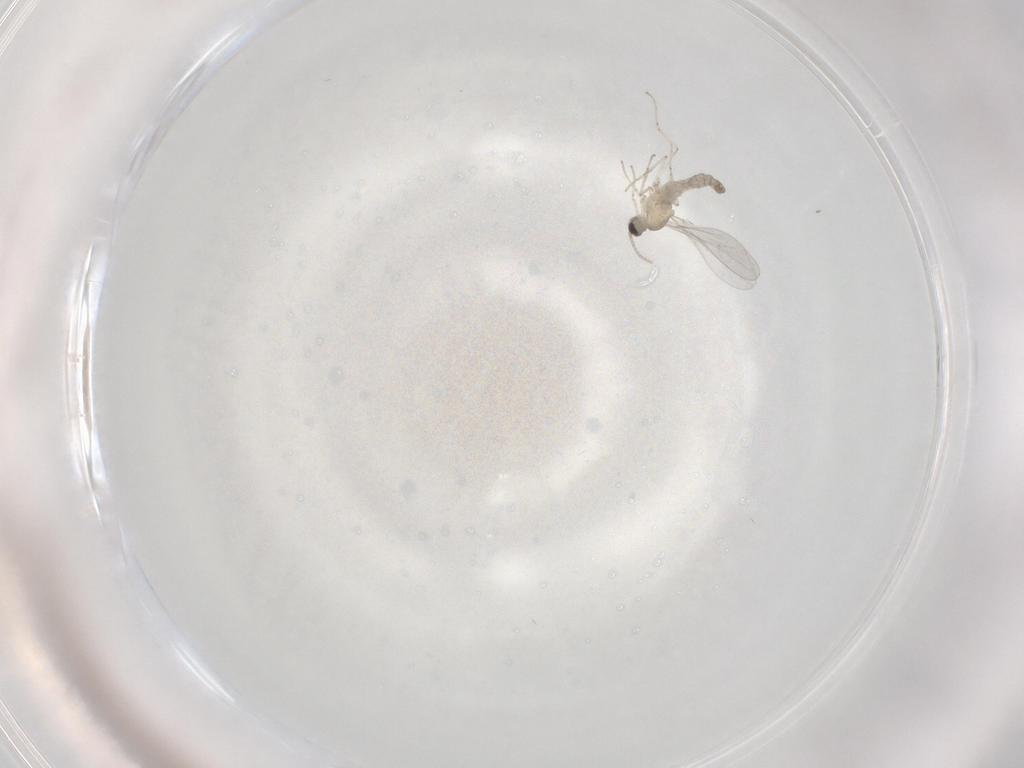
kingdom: Animalia
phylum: Arthropoda
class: Insecta
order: Diptera
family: Cecidomyiidae
